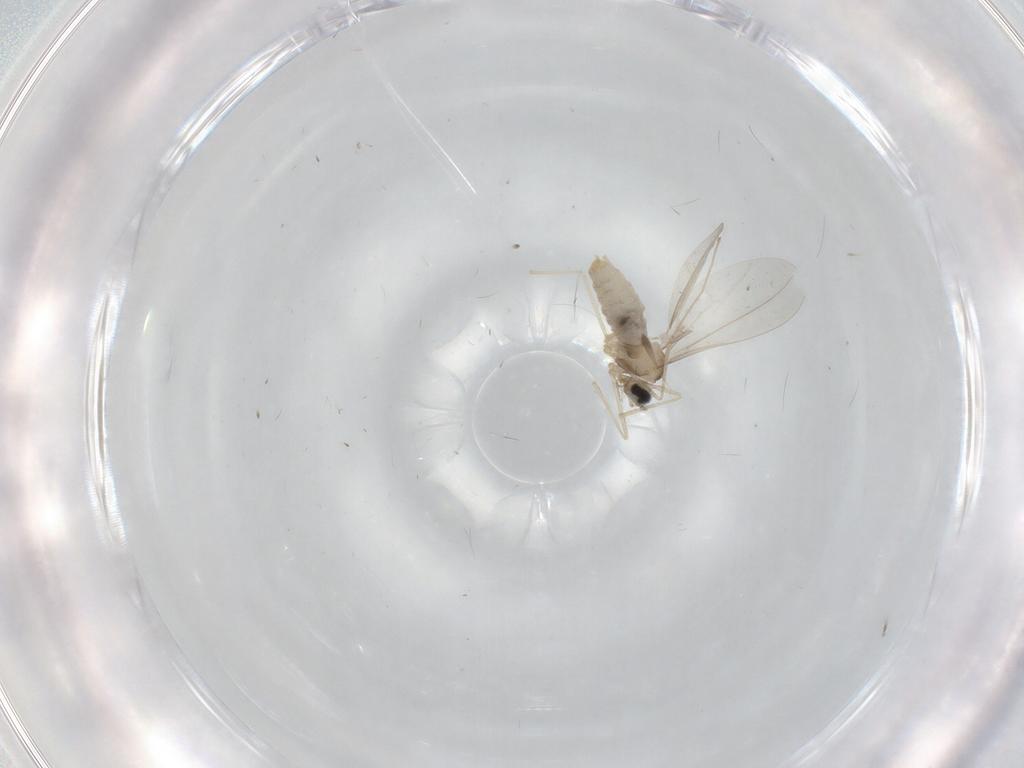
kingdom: Animalia
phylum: Arthropoda
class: Insecta
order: Diptera
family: Cecidomyiidae
